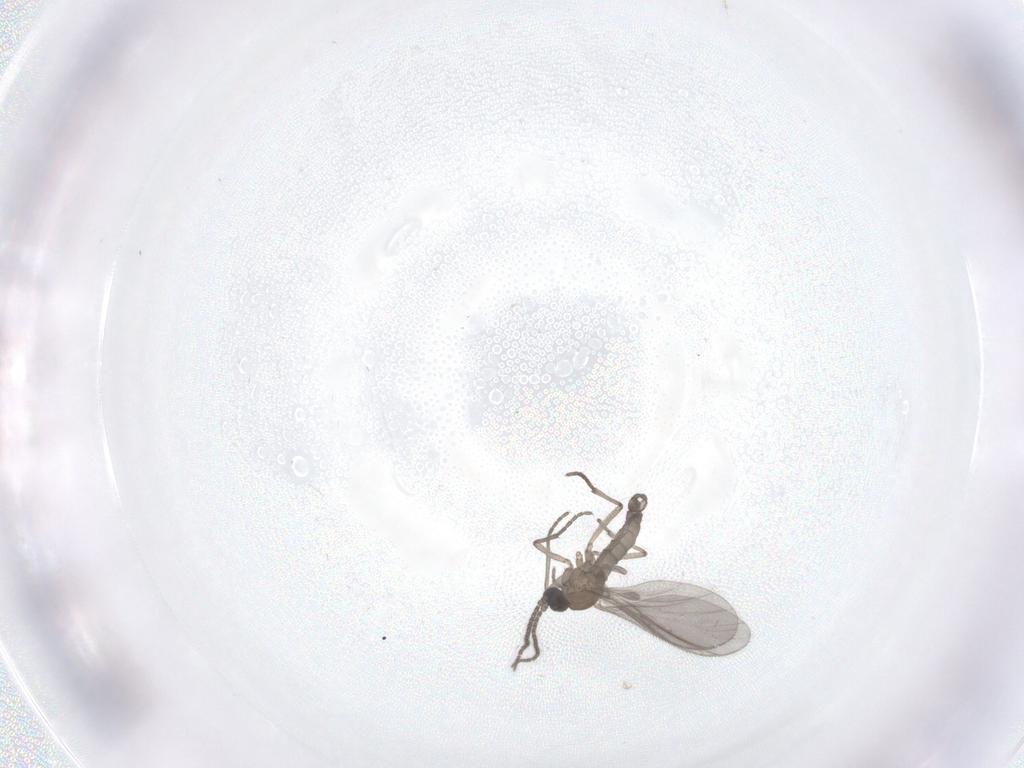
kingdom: Animalia
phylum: Arthropoda
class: Insecta
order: Diptera
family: Sciaridae
